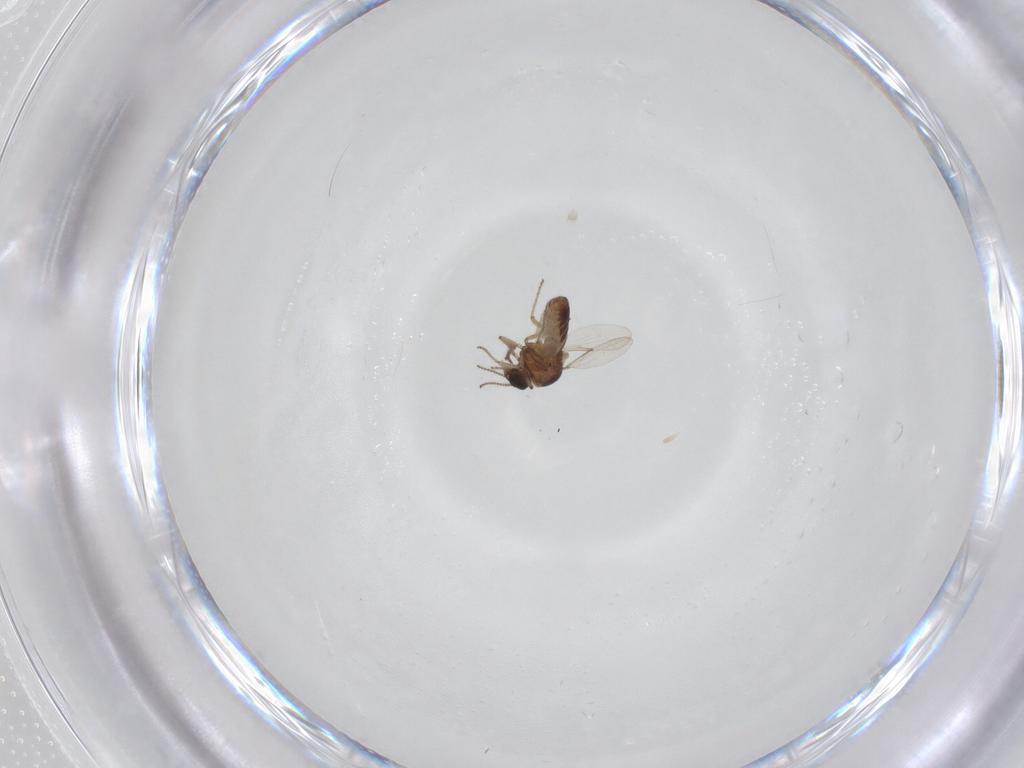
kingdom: Animalia
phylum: Arthropoda
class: Insecta
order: Diptera
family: Ceratopogonidae
